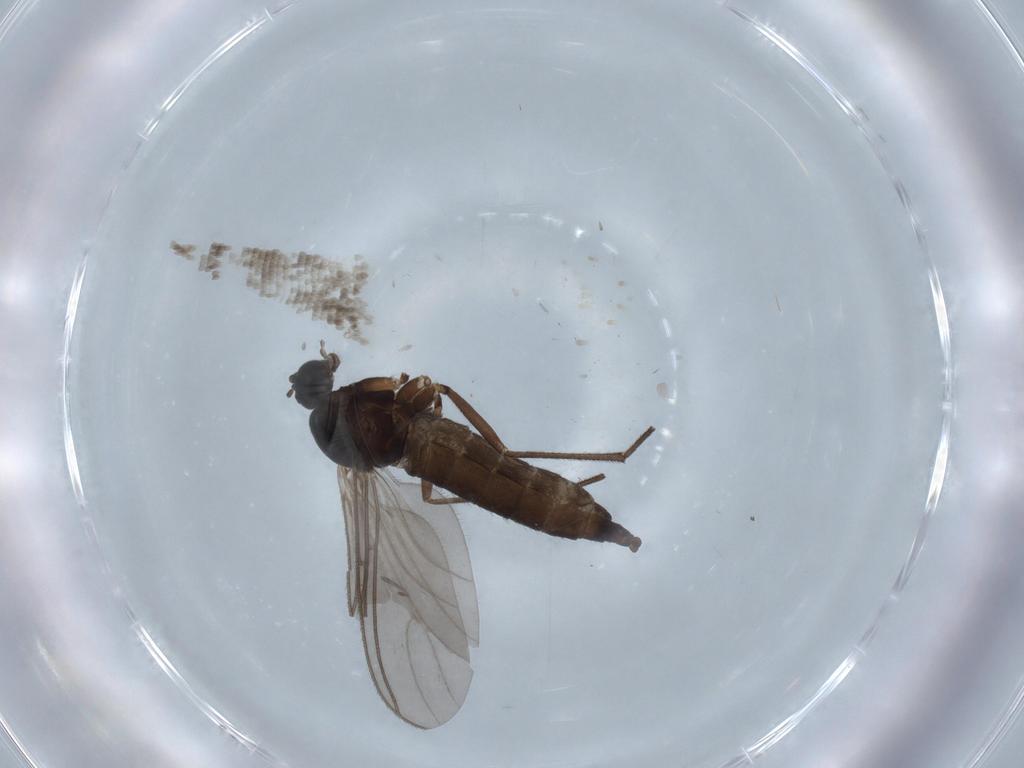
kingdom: Animalia
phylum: Arthropoda
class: Insecta
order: Diptera
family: Sciaridae
